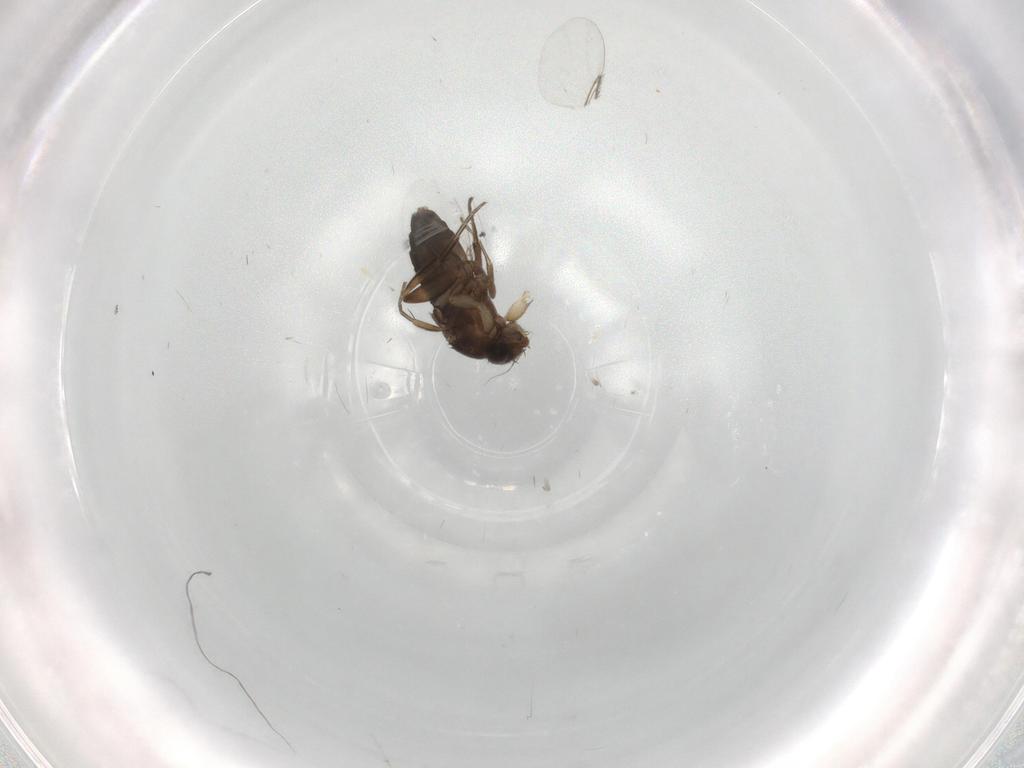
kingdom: Animalia
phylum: Arthropoda
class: Insecta
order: Diptera
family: Phoridae
